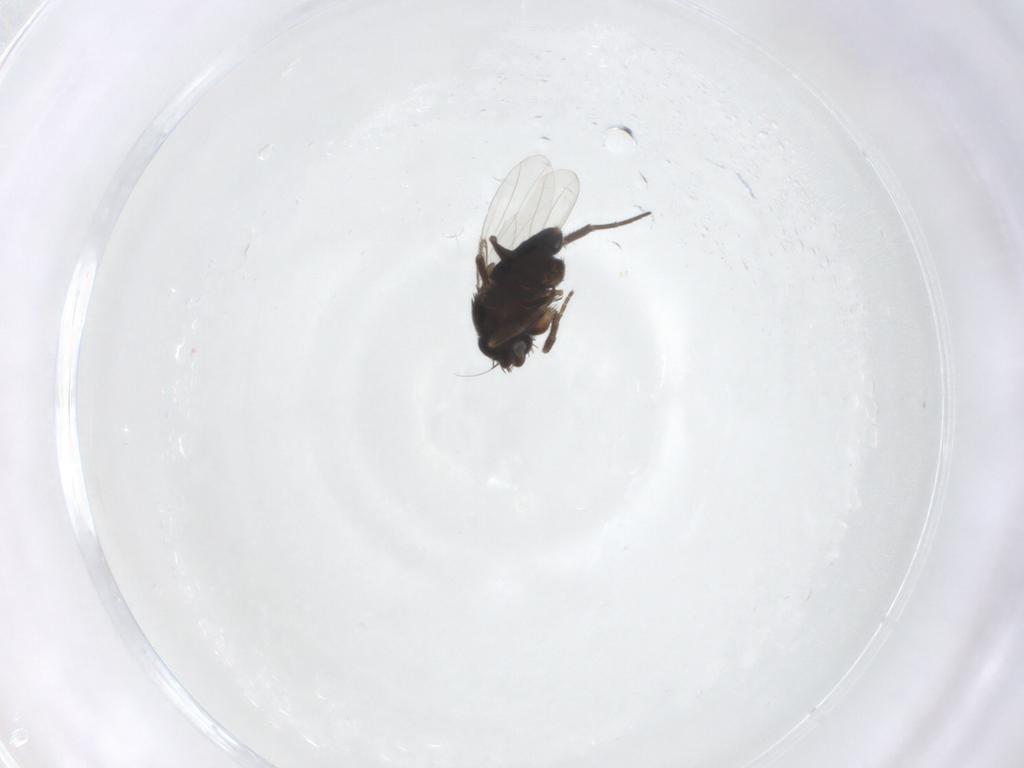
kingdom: Animalia
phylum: Arthropoda
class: Insecta
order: Diptera
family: Phoridae
